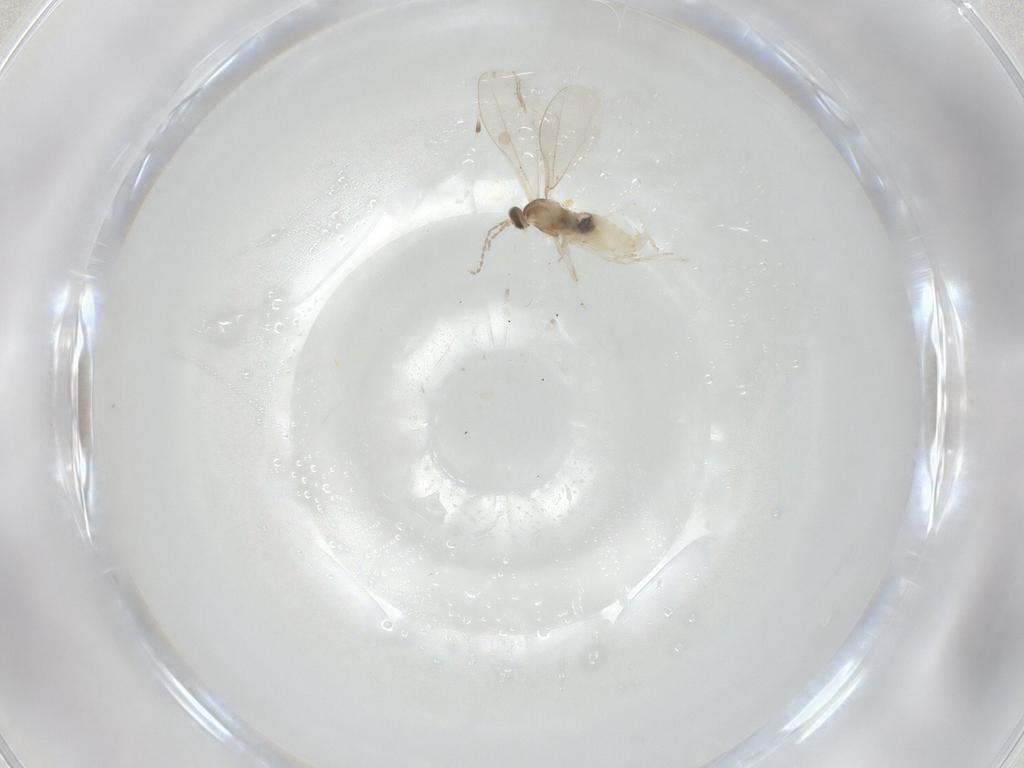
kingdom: Animalia
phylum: Arthropoda
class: Insecta
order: Diptera
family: Cecidomyiidae
